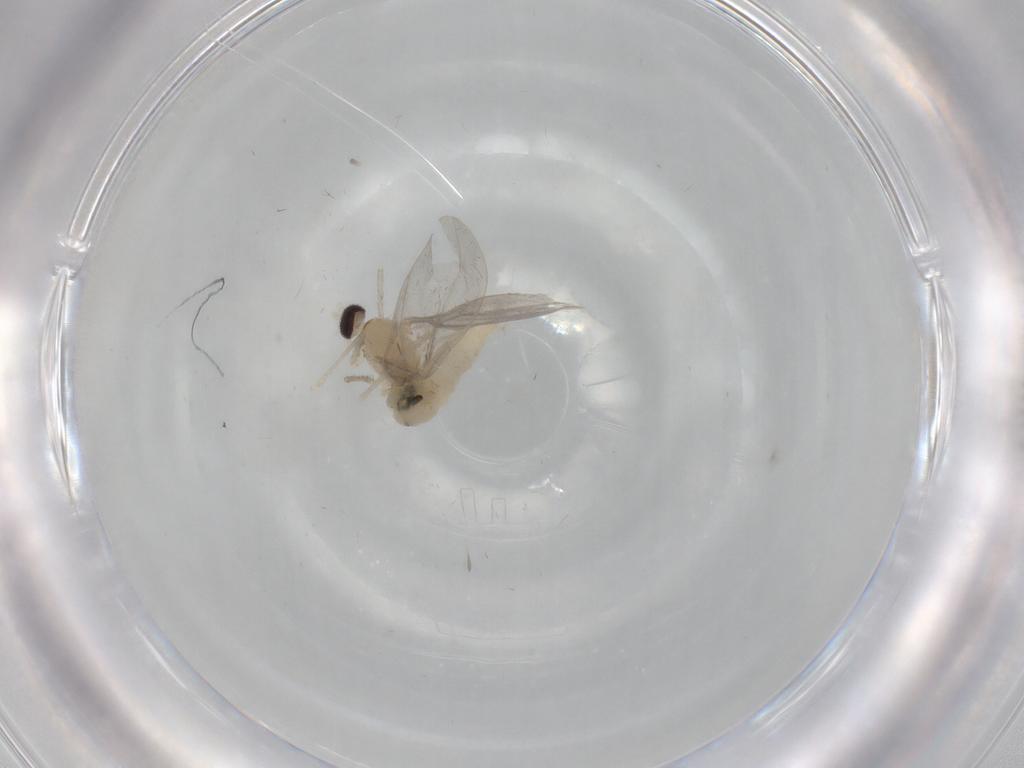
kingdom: Animalia
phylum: Arthropoda
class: Insecta
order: Diptera
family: Cecidomyiidae
